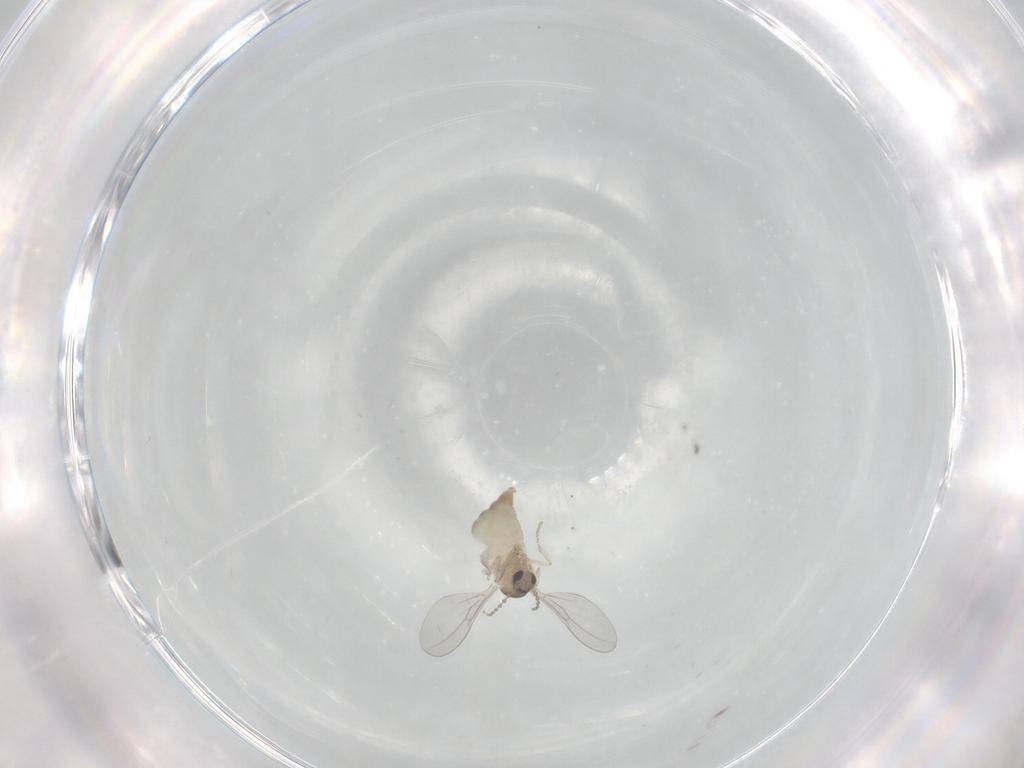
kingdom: Animalia
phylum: Arthropoda
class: Insecta
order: Diptera
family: Cecidomyiidae
